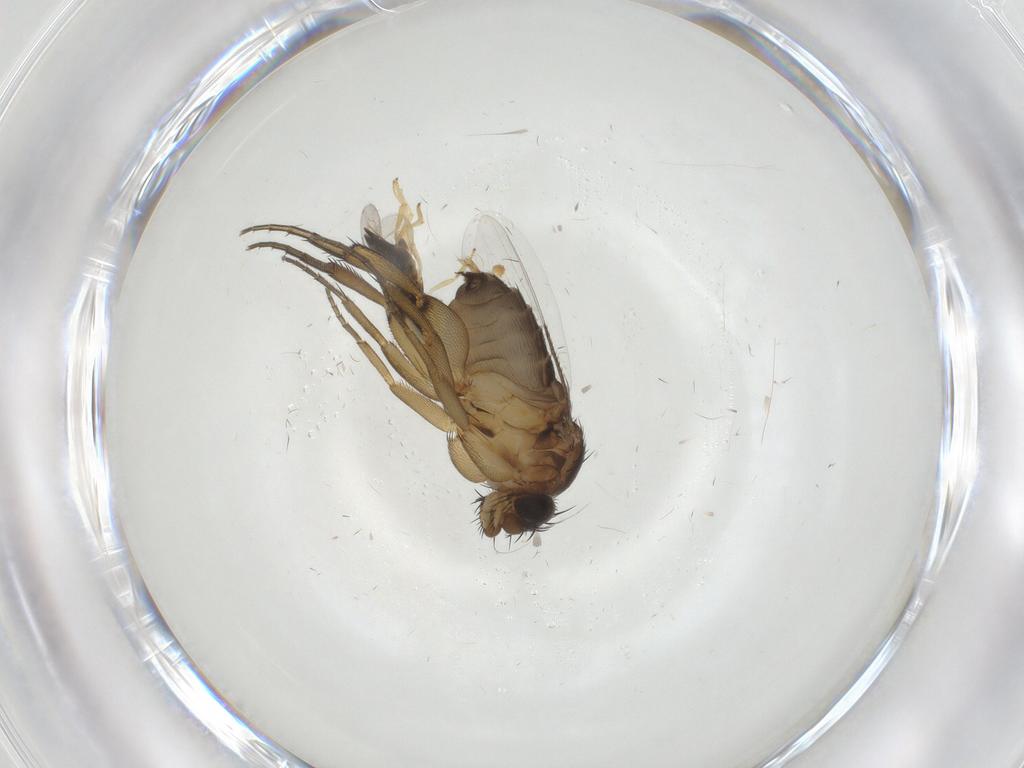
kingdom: Animalia
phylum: Arthropoda
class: Insecta
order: Diptera
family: Phoridae
